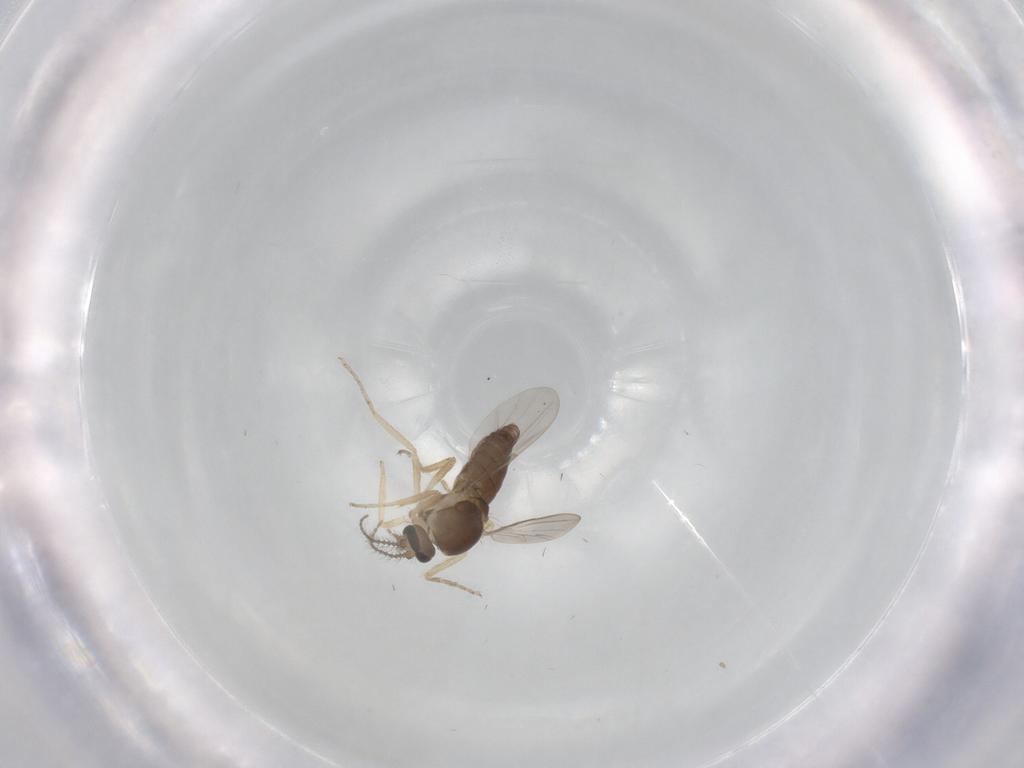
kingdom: Animalia
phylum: Arthropoda
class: Insecta
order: Diptera
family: Ceratopogonidae
